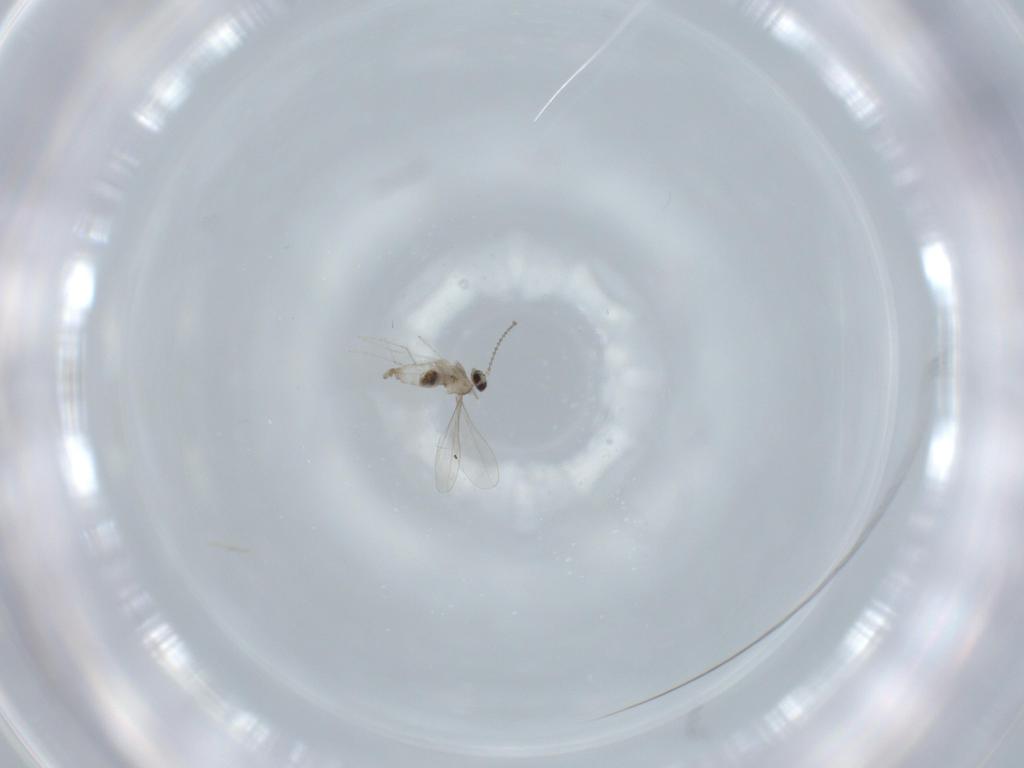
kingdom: Animalia
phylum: Arthropoda
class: Insecta
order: Diptera
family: Cecidomyiidae
